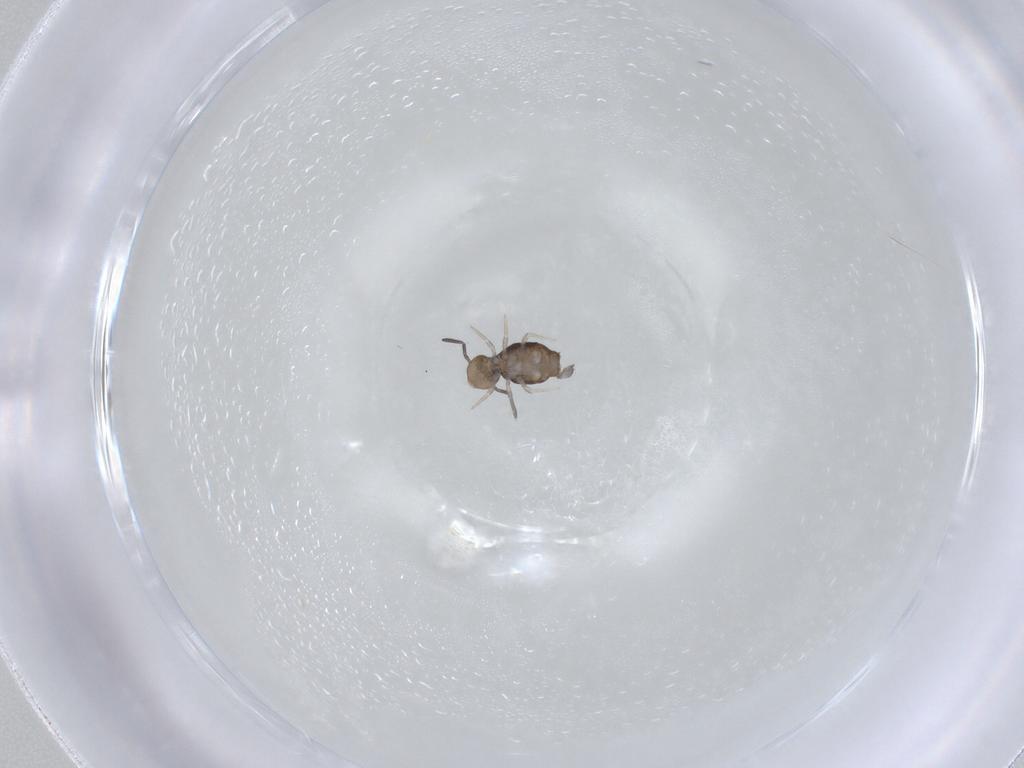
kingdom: Animalia
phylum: Arthropoda
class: Collembola
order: Symphypleona
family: Katiannidae
